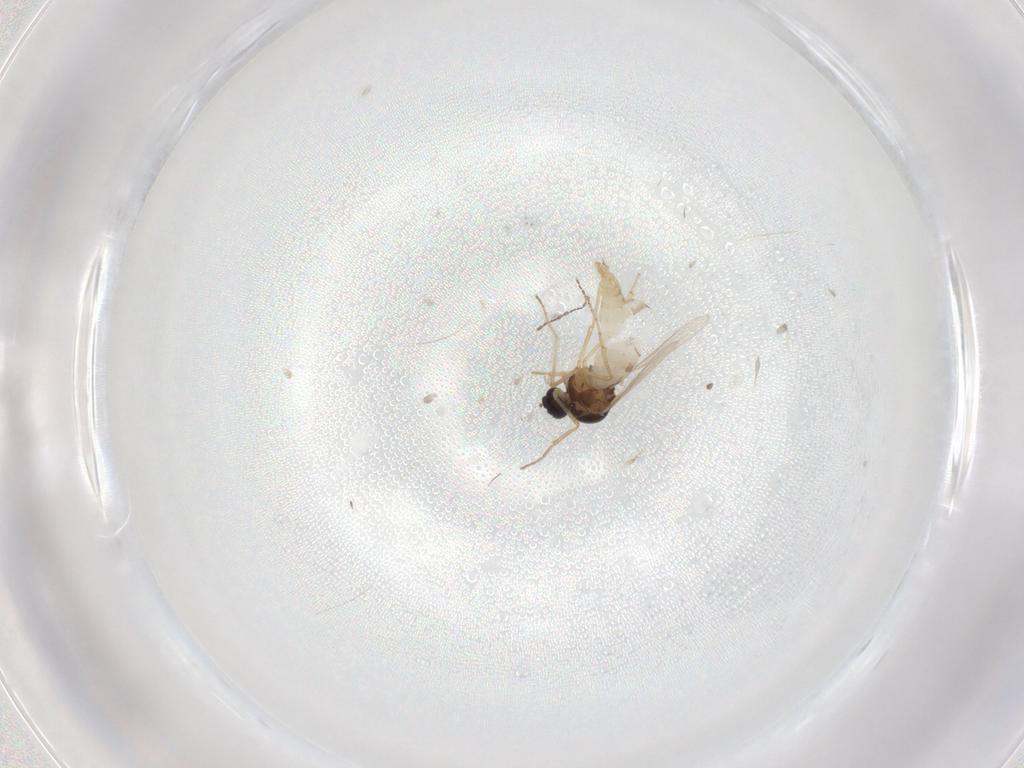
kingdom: Animalia
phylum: Arthropoda
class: Insecta
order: Diptera
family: Ceratopogonidae
